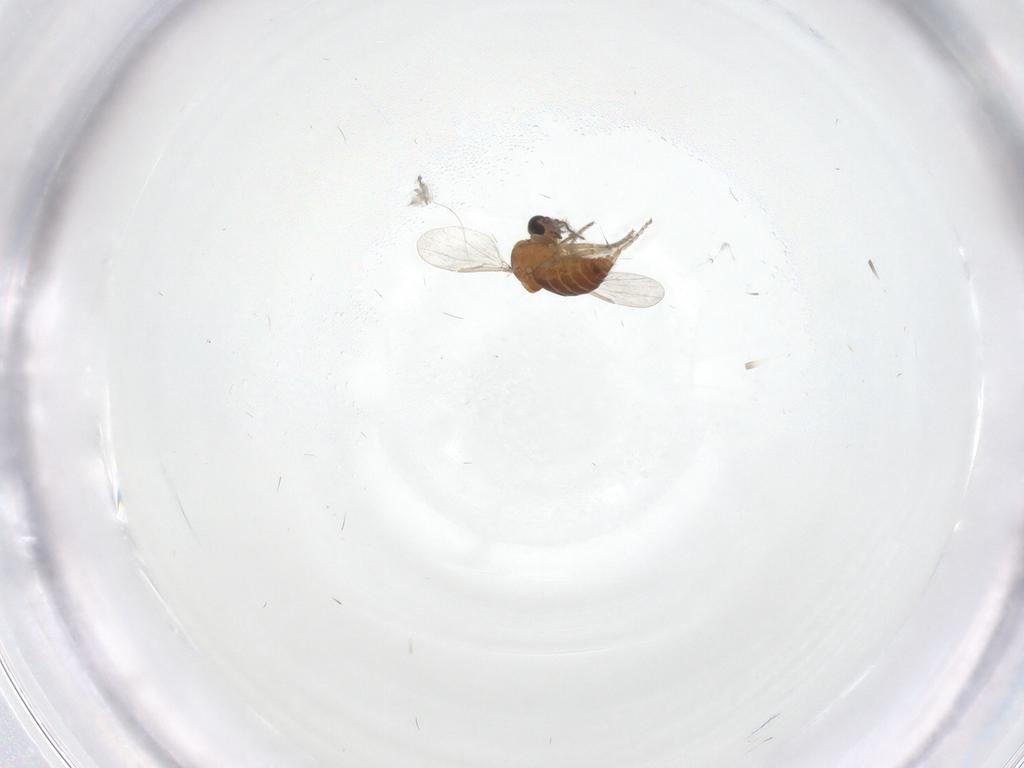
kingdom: Animalia
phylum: Arthropoda
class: Insecta
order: Diptera
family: Ceratopogonidae
